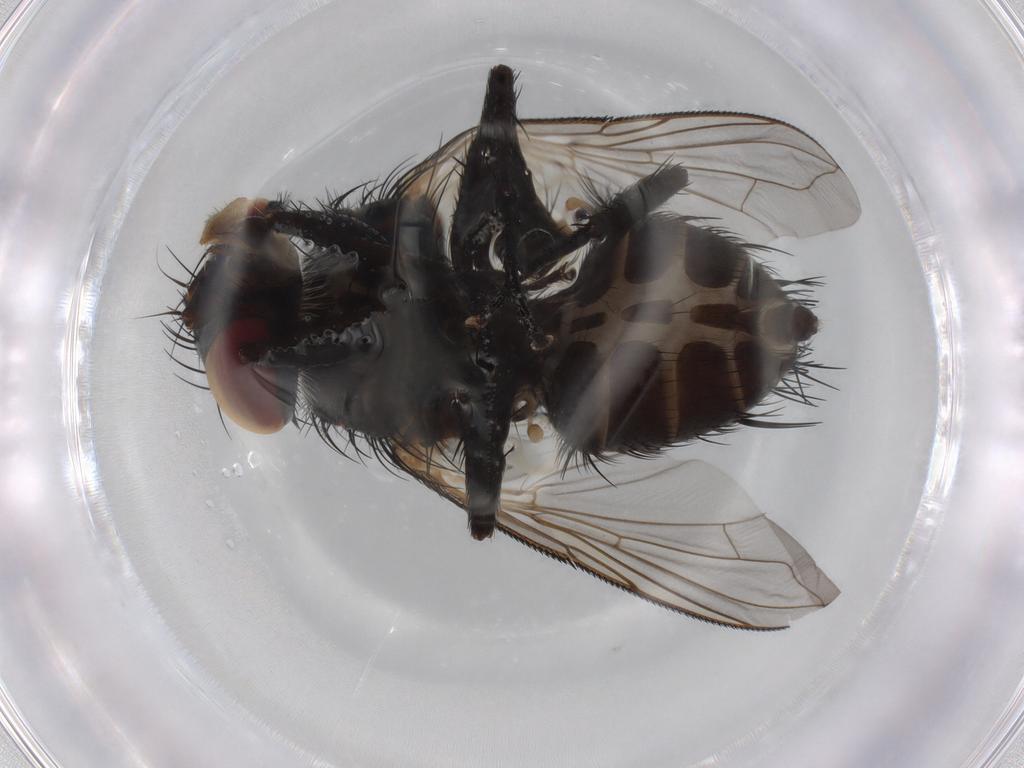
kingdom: Animalia
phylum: Arthropoda
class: Insecta
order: Diptera
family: Tachinidae
